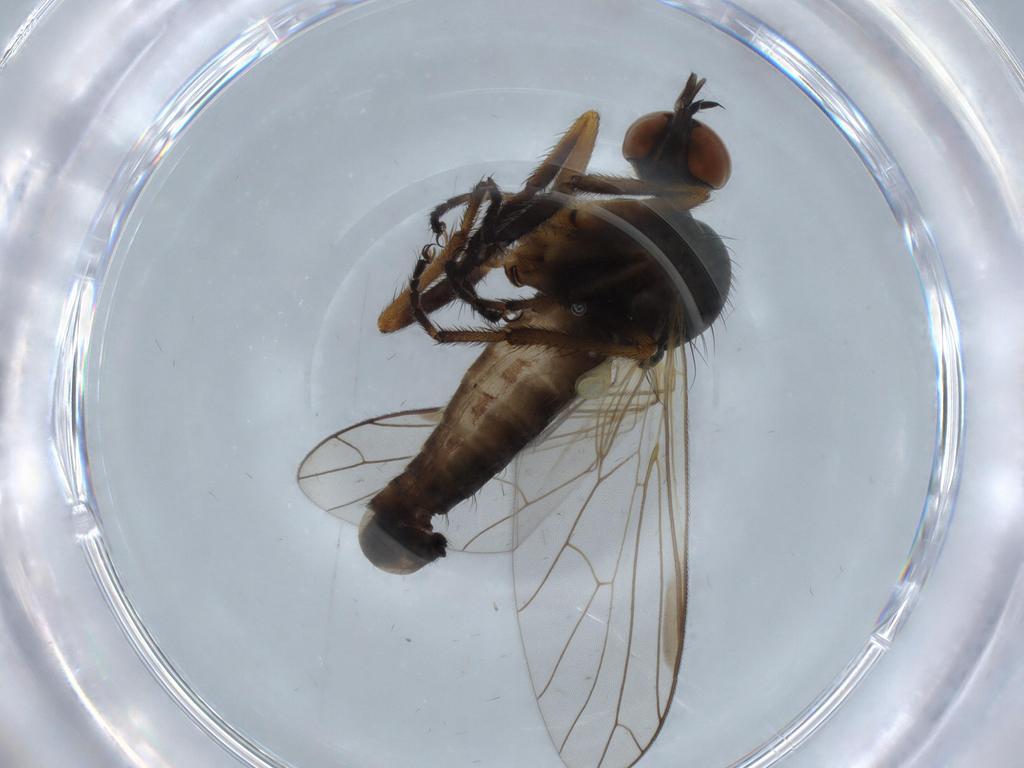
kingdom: Animalia
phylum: Arthropoda
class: Insecta
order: Diptera
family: Empididae
